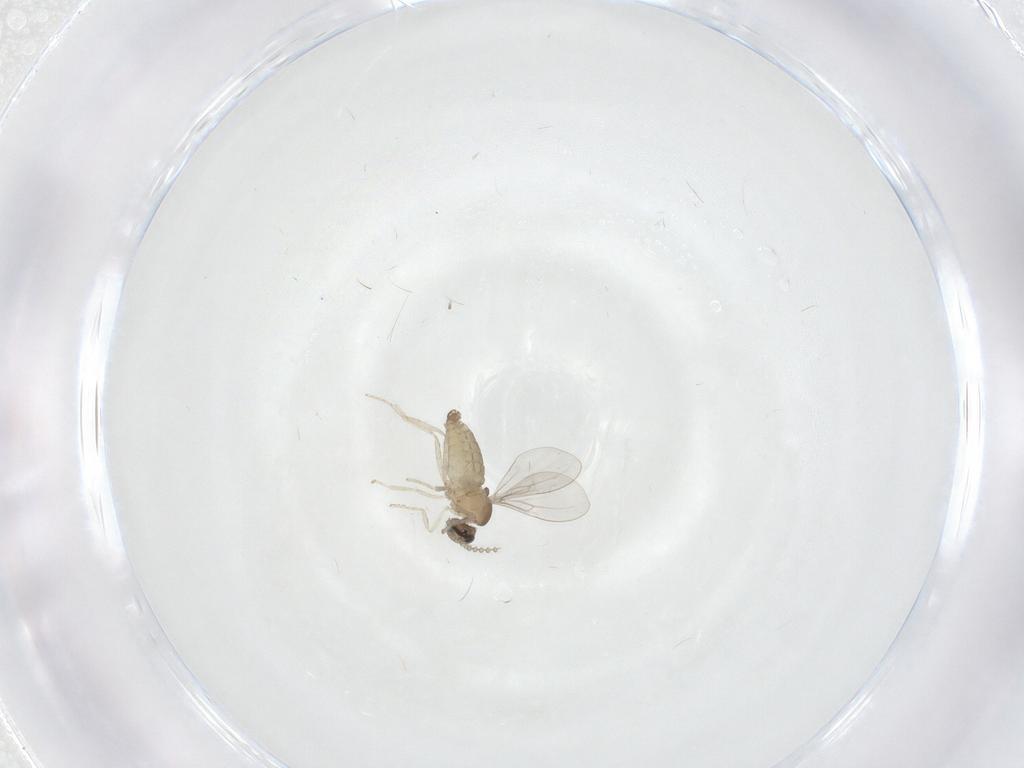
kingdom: Animalia
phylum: Arthropoda
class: Insecta
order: Diptera
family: Cecidomyiidae
